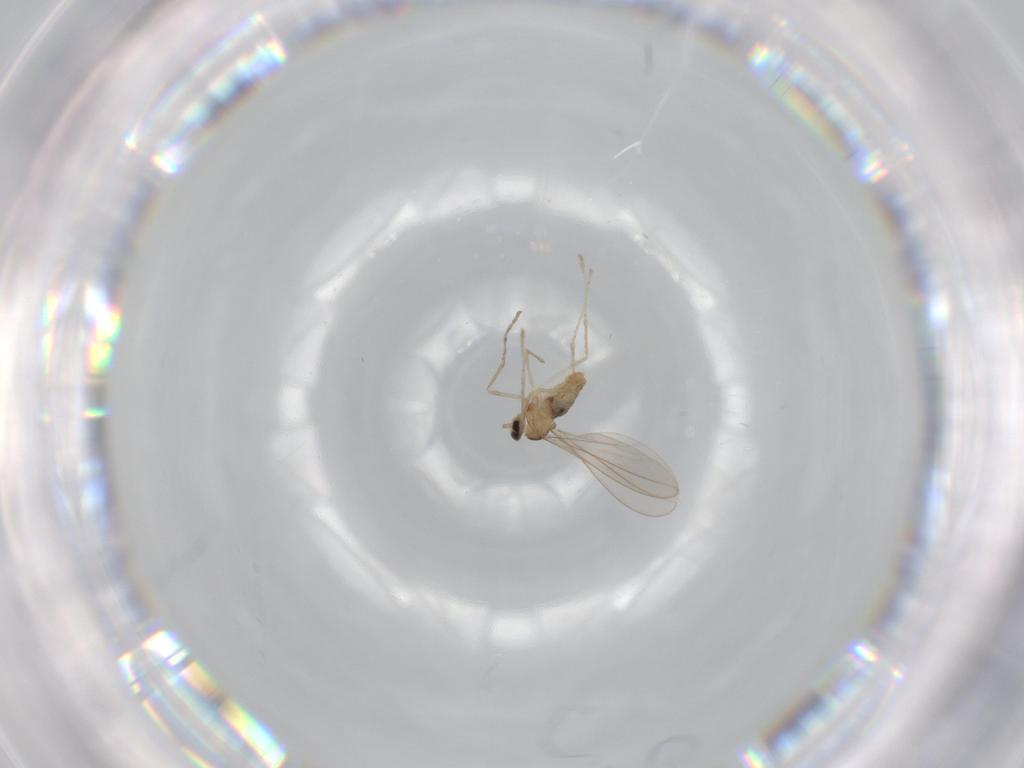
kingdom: Animalia
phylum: Arthropoda
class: Insecta
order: Diptera
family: Cecidomyiidae
